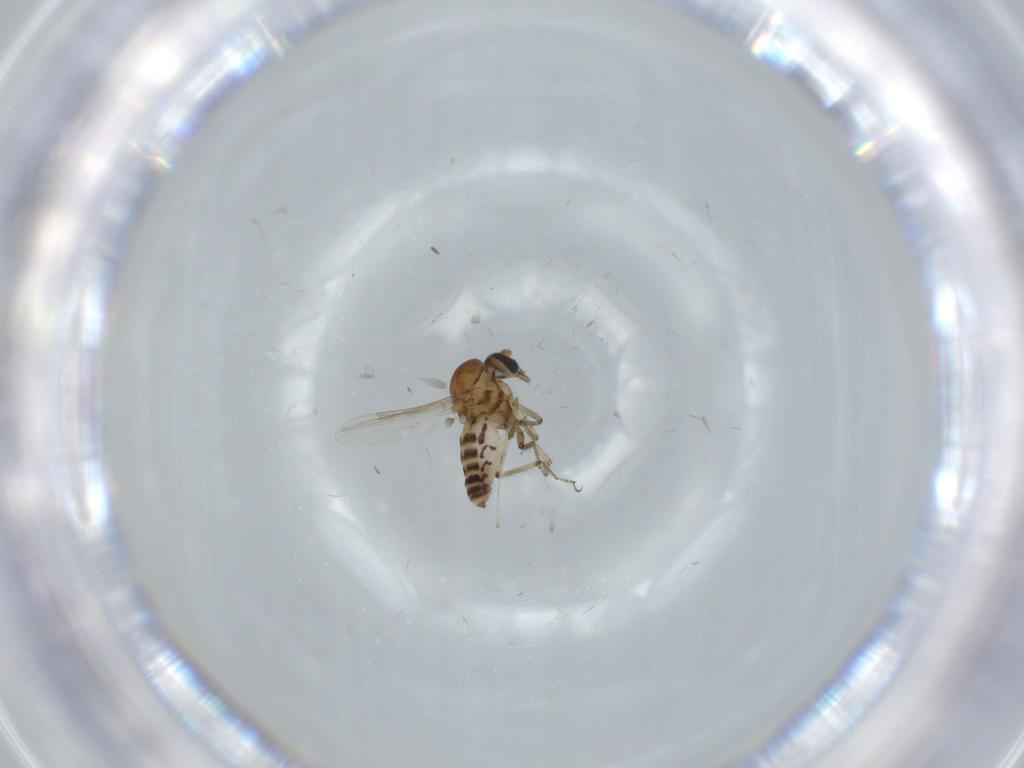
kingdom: Animalia
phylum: Arthropoda
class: Insecta
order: Diptera
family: Ceratopogonidae
